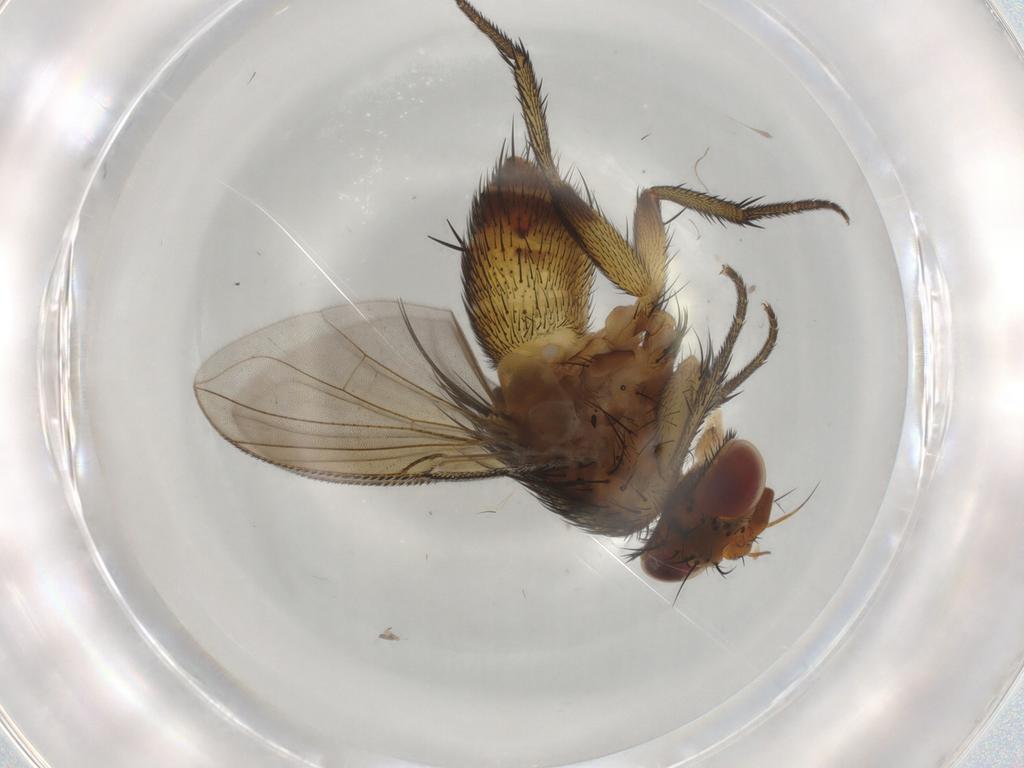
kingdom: Animalia
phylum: Arthropoda
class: Insecta
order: Diptera
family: Tachinidae
